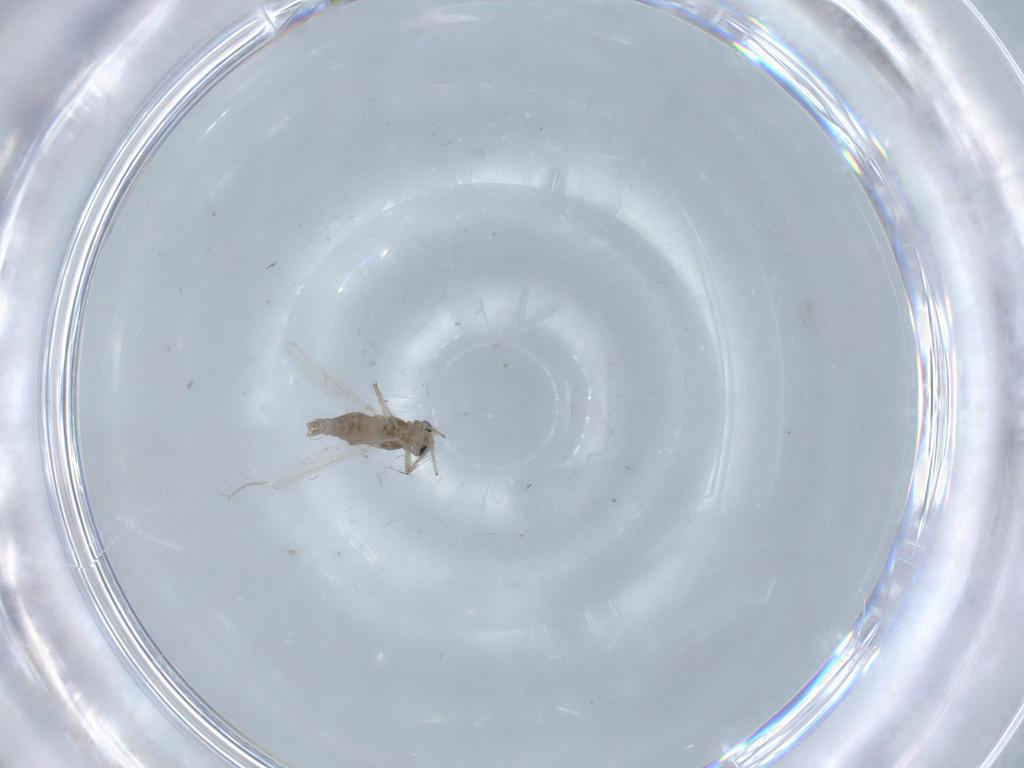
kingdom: Animalia
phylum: Arthropoda
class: Insecta
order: Diptera
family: Chironomidae
